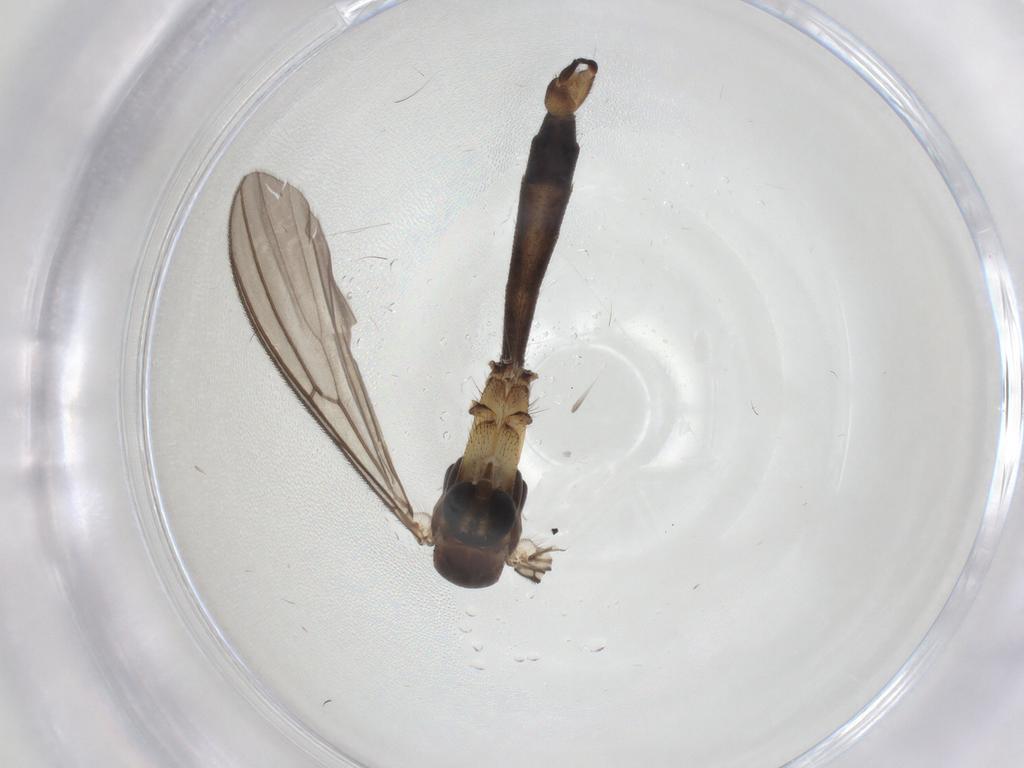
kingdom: Animalia
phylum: Arthropoda
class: Insecta
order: Diptera
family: Chironomidae
